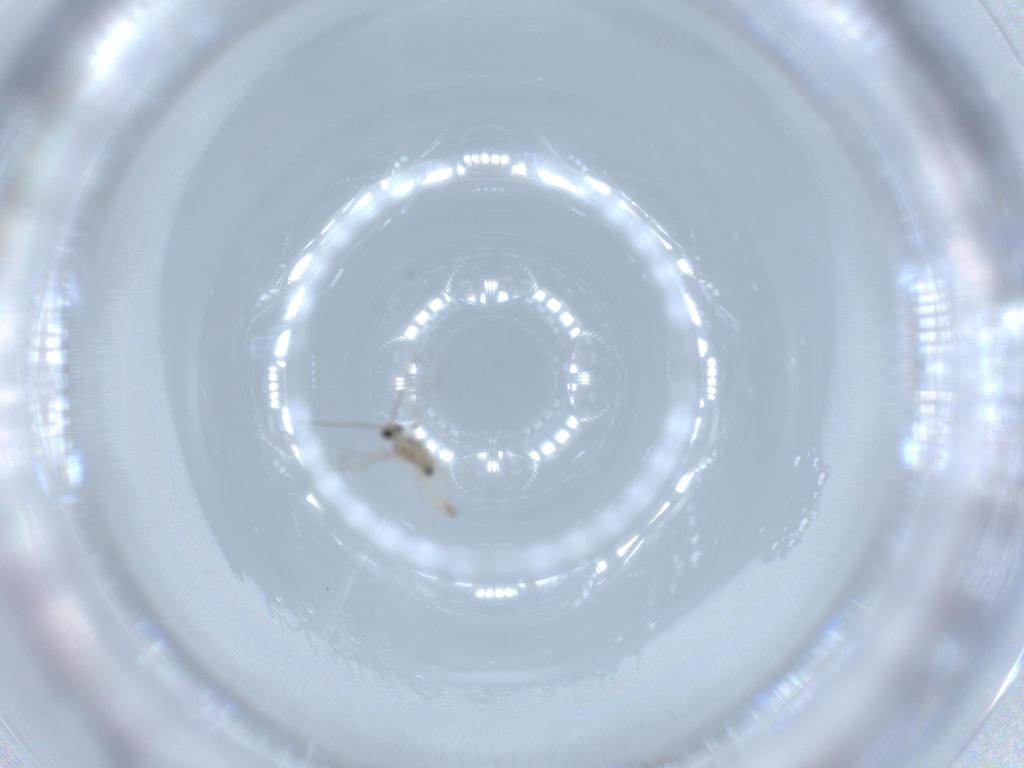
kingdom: Animalia
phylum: Arthropoda
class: Insecta
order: Diptera
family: Cecidomyiidae
